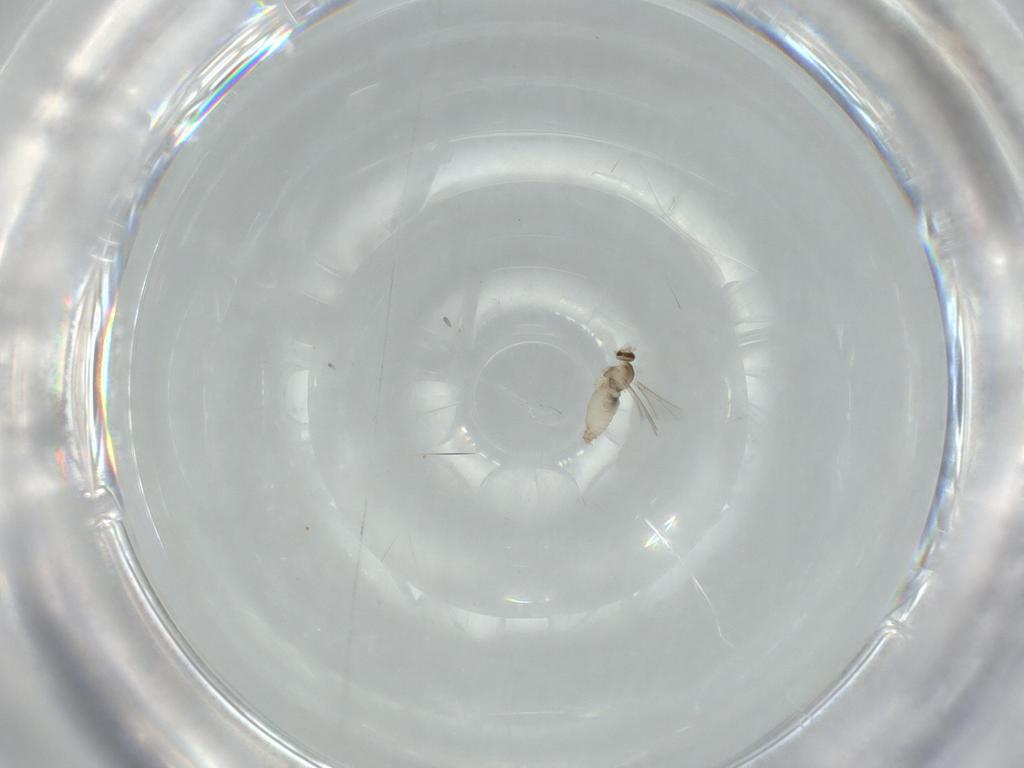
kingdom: Animalia
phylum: Arthropoda
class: Insecta
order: Diptera
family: Cecidomyiidae
